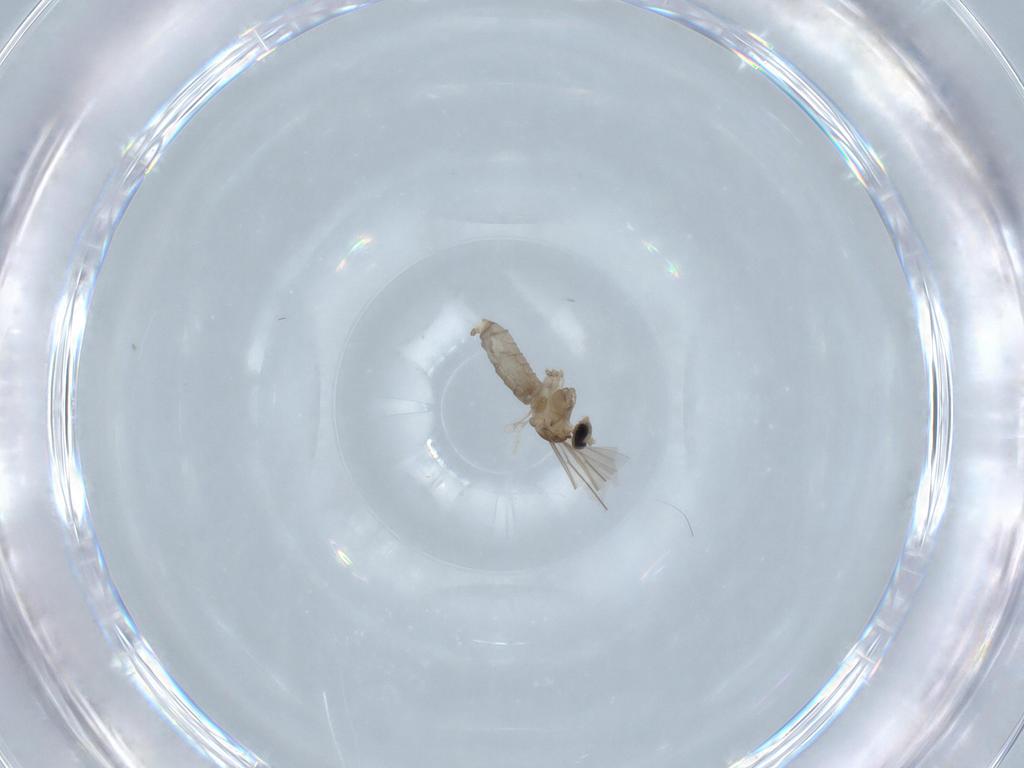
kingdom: Animalia
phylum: Arthropoda
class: Insecta
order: Diptera
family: Cecidomyiidae
